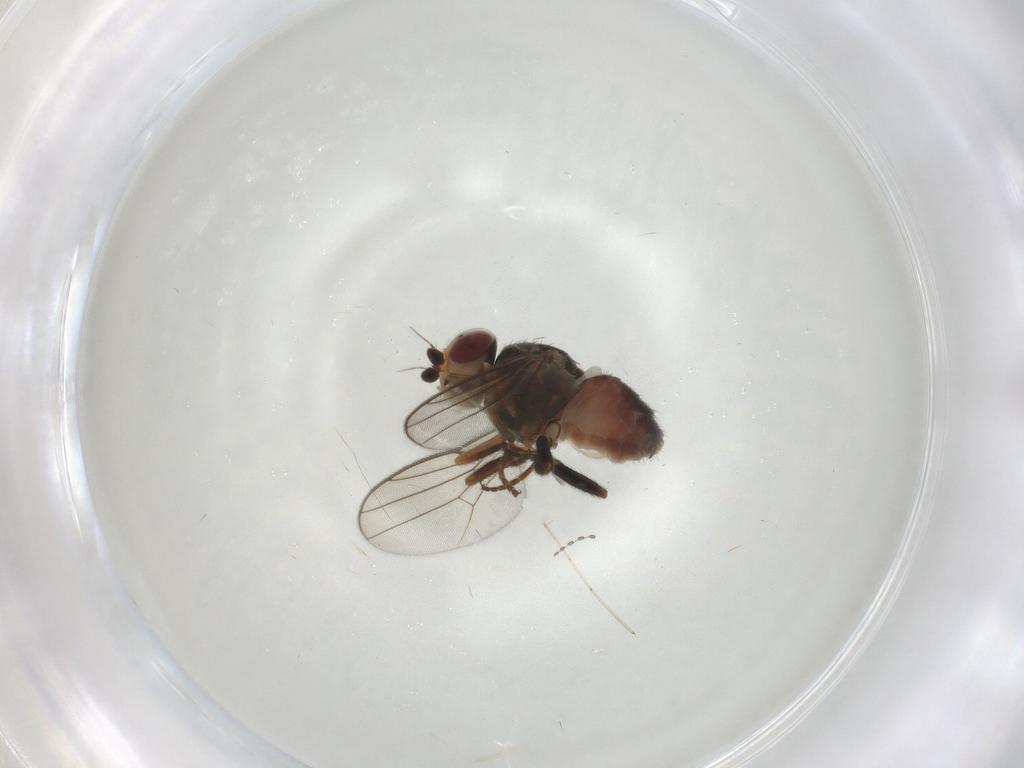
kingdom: Animalia
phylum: Arthropoda
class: Insecta
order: Diptera
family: Chloropidae
